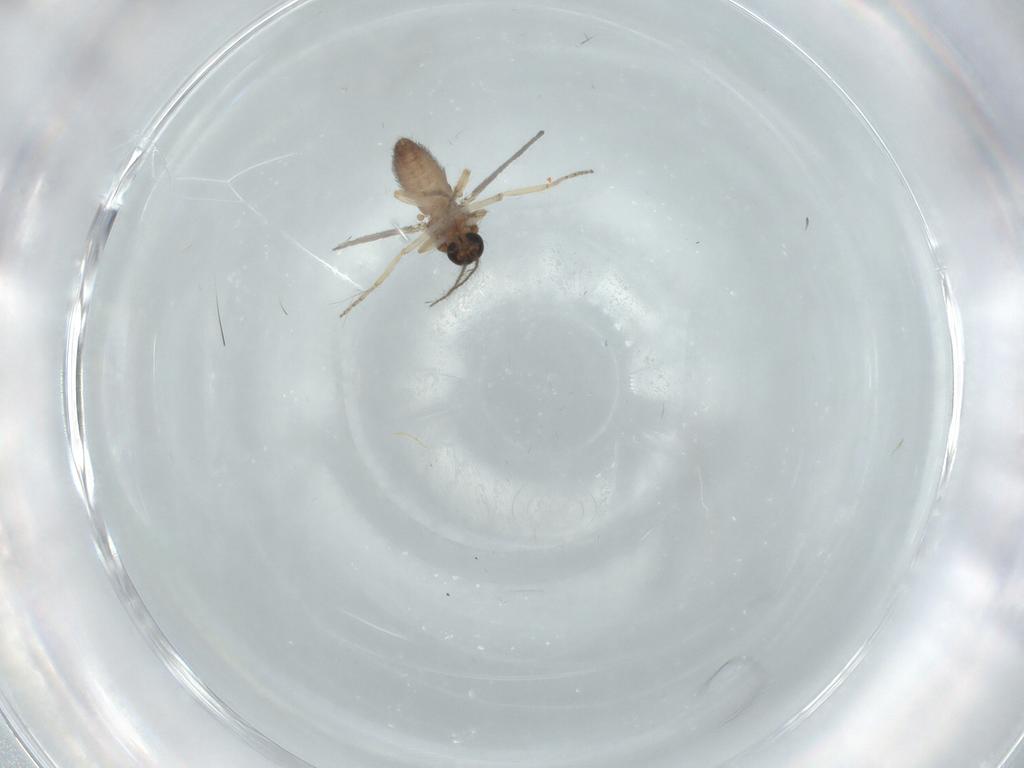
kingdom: Animalia
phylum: Arthropoda
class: Insecta
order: Diptera
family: Ceratopogonidae
